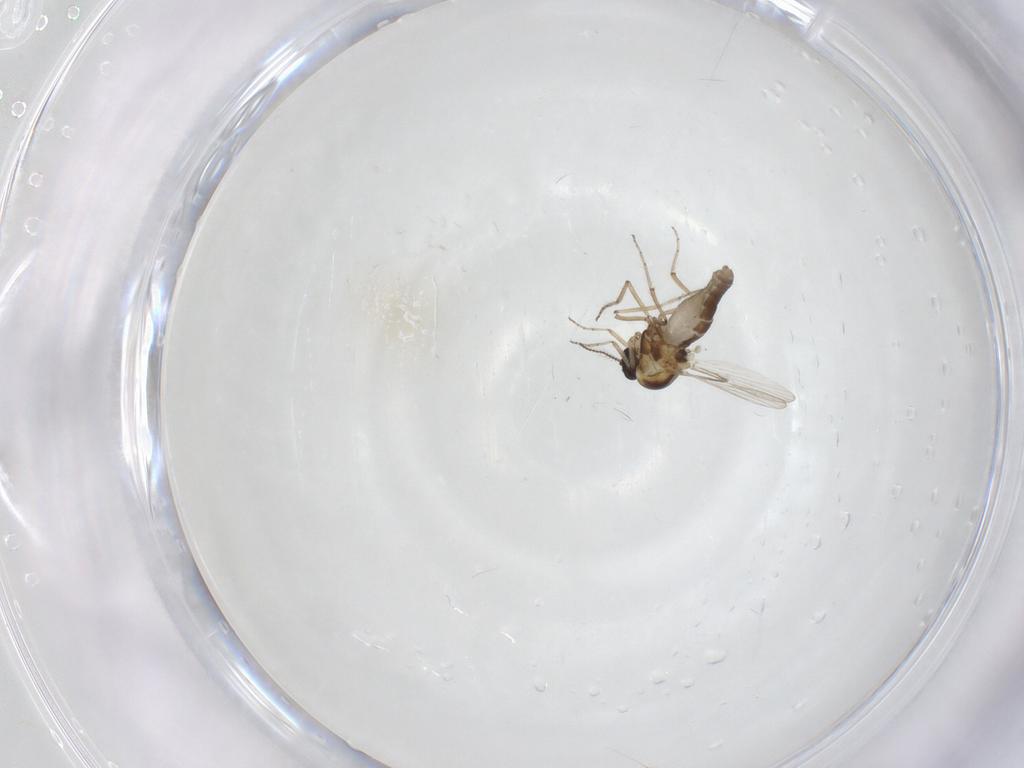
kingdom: Animalia
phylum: Arthropoda
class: Insecta
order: Diptera
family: Ceratopogonidae
